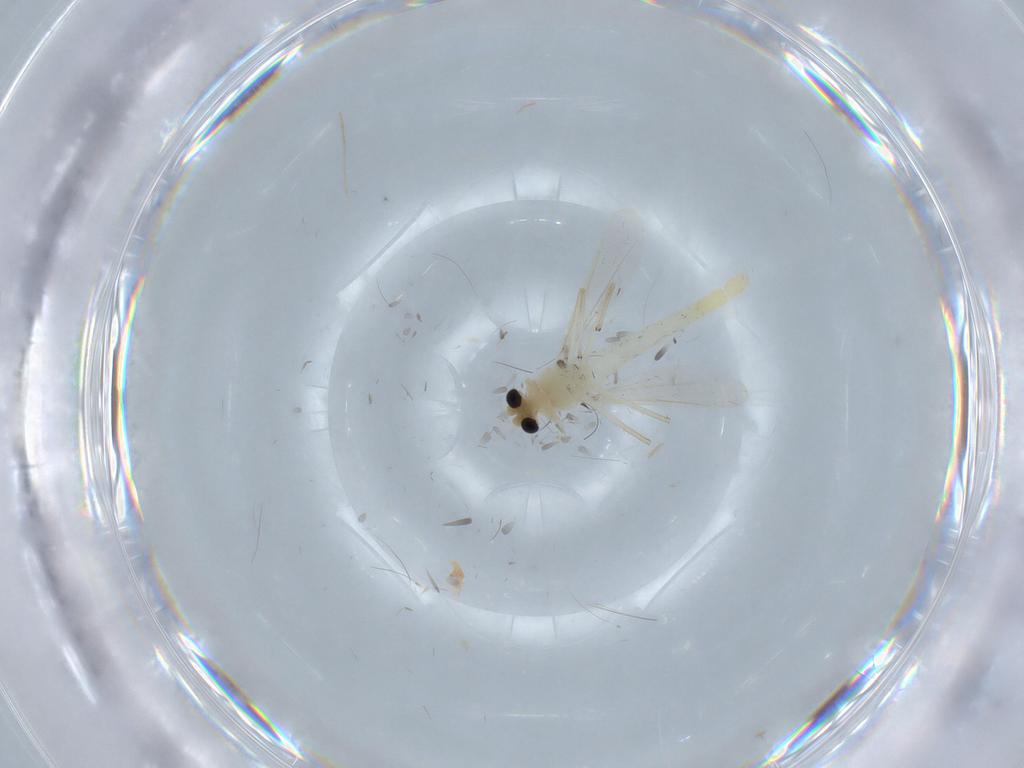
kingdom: Animalia
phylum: Arthropoda
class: Insecta
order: Diptera
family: Chironomidae
